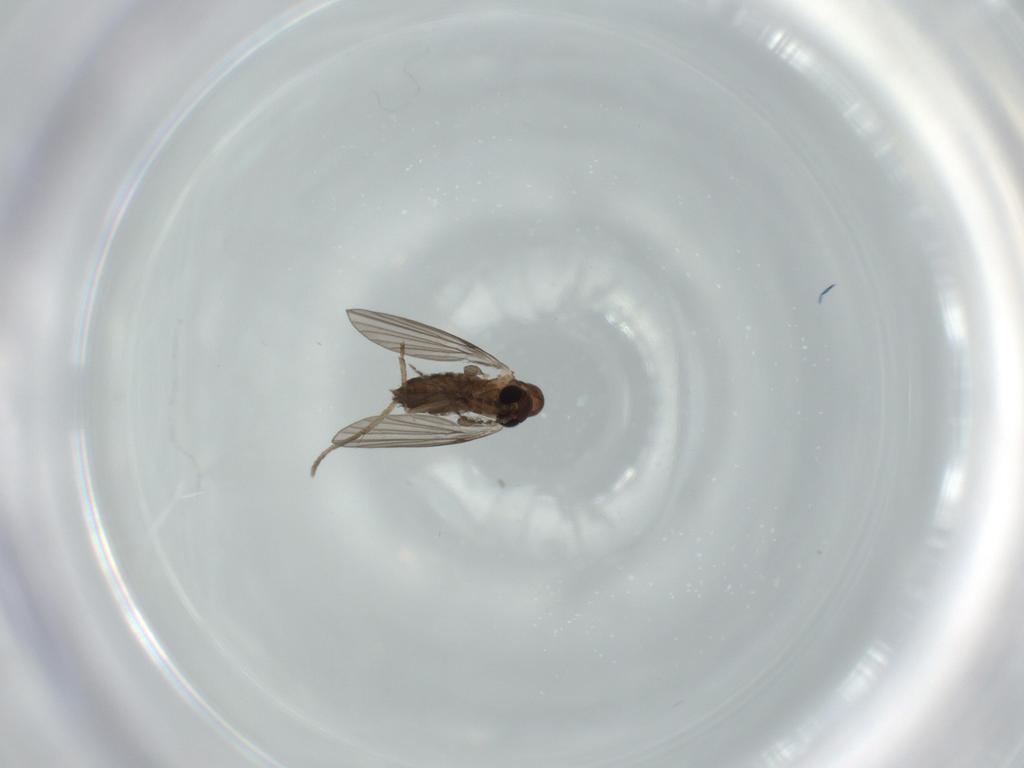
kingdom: Animalia
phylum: Arthropoda
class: Insecta
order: Diptera
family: Psychodidae
